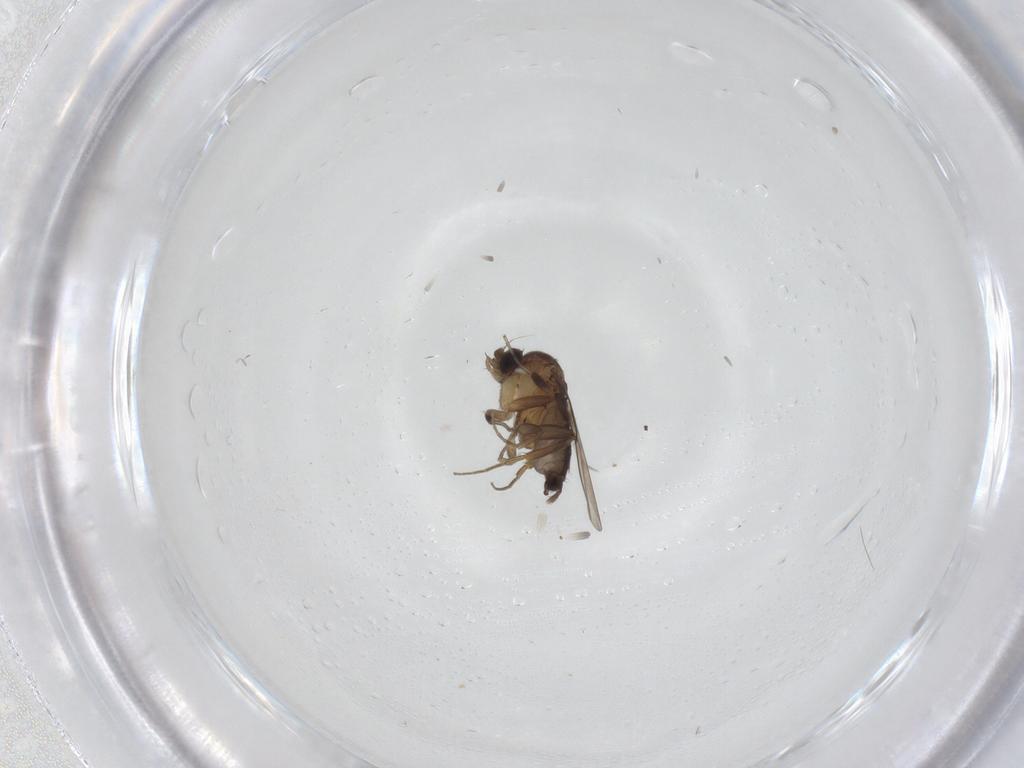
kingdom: Animalia
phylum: Arthropoda
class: Insecta
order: Diptera
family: Phoridae
